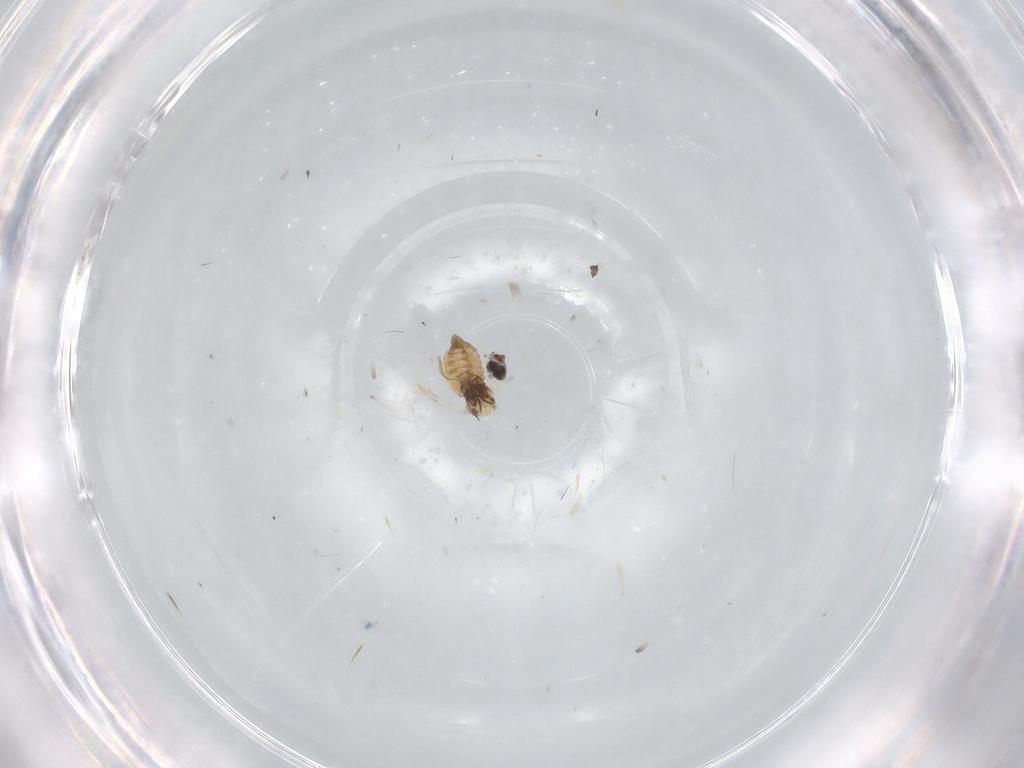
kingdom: Animalia
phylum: Arthropoda
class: Insecta
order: Diptera
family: Cecidomyiidae
